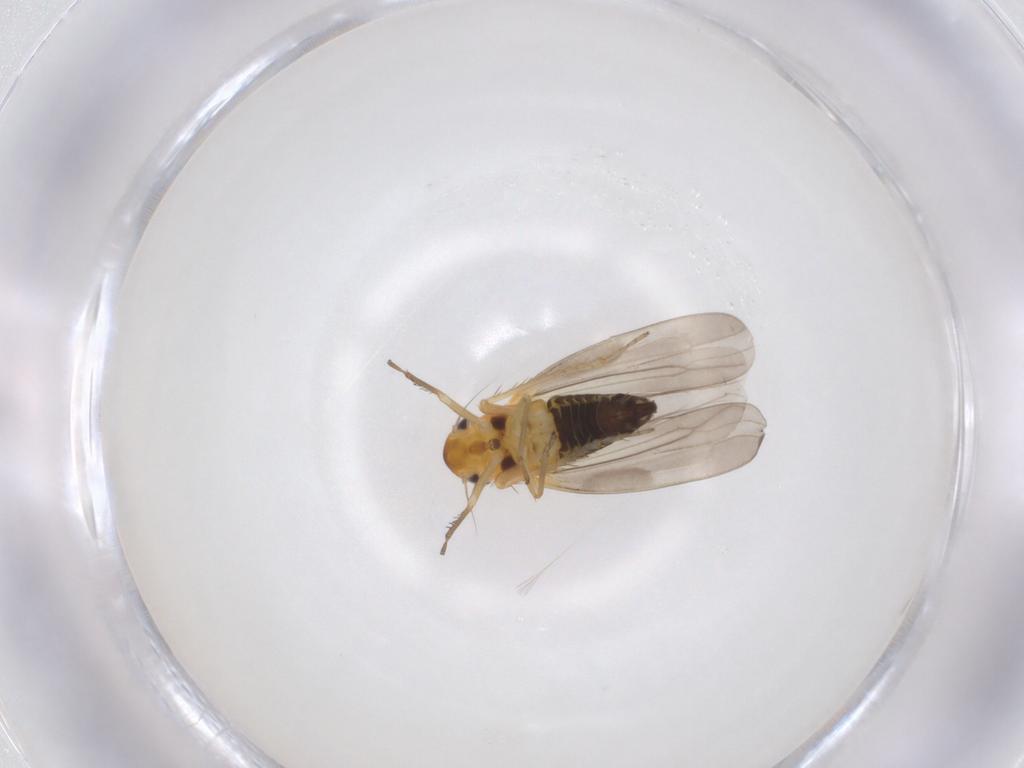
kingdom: Animalia
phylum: Arthropoda
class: Insecta
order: Hemiptera
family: Cicadellidae
